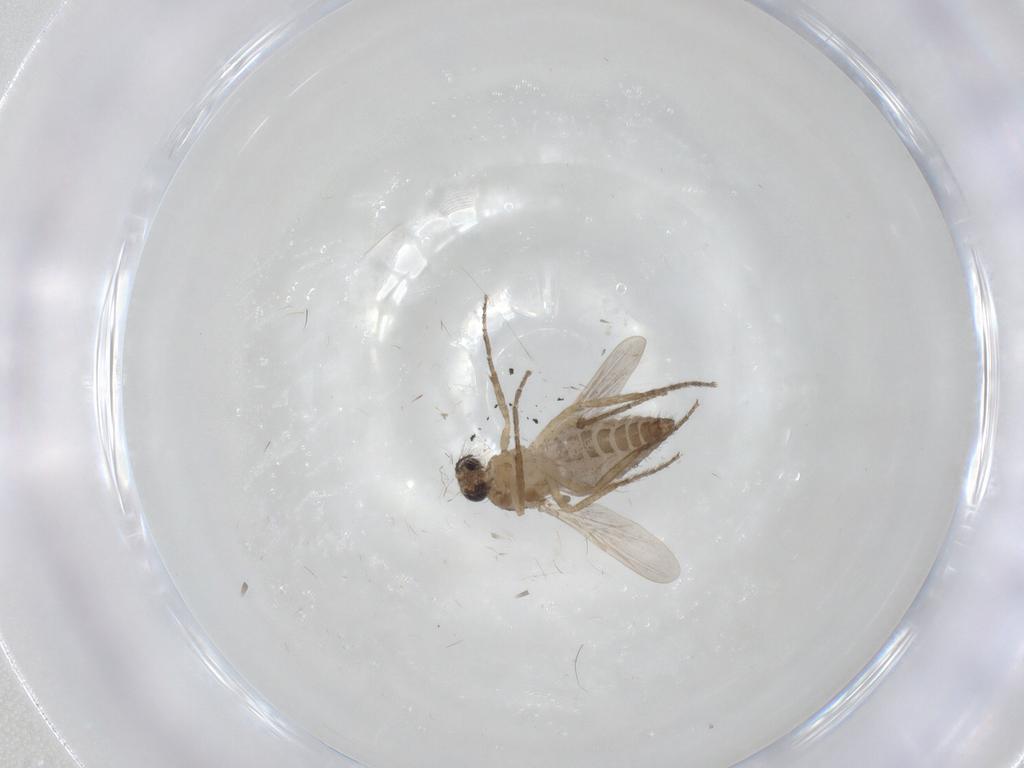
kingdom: Animalia
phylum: Arthropoda
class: Insecta
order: Diptera
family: Ceratopogonidae
